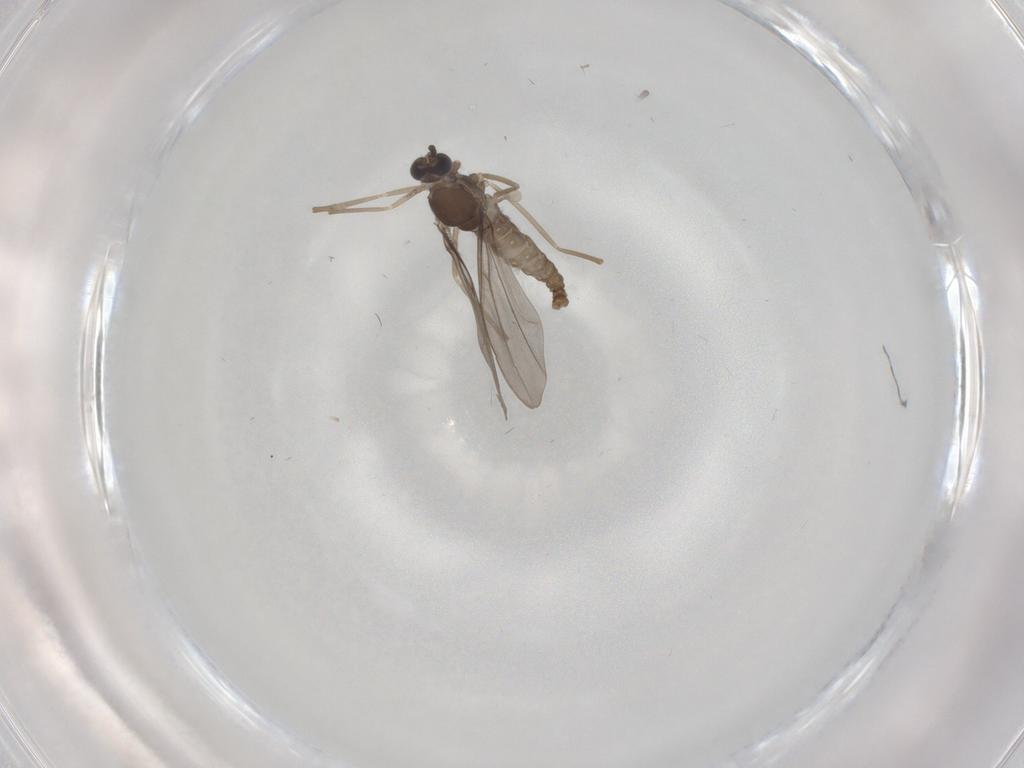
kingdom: Animalia
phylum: Arthropoda
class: Insecta
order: Diptera
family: Cecidomyiidae
